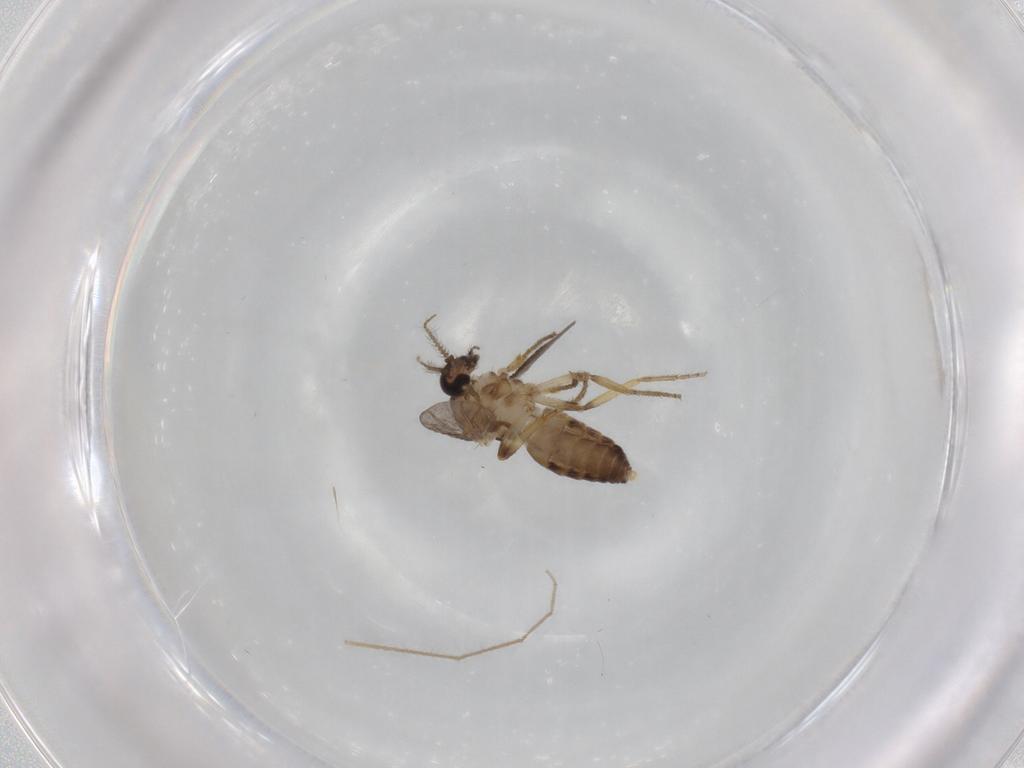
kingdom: Animalia
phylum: Arthropoda
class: Insecta
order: Diptera
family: Ceratopogonidae
